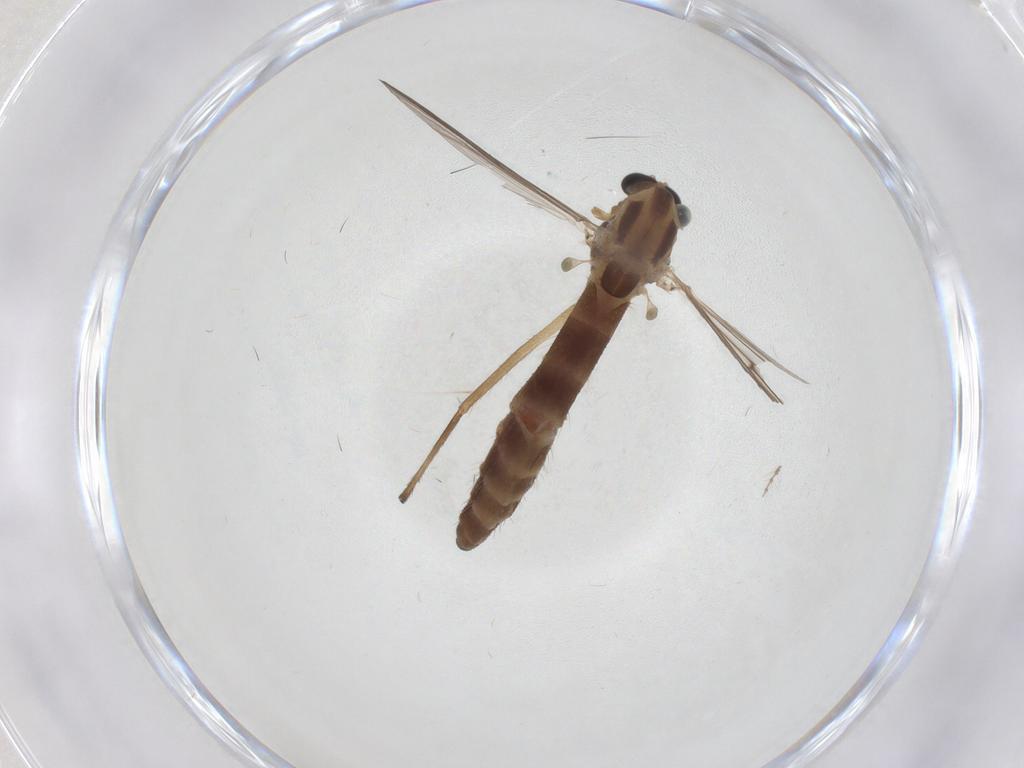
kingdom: Animalia
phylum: Arthropoda
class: Insecta
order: Diptera
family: Chironomidae
